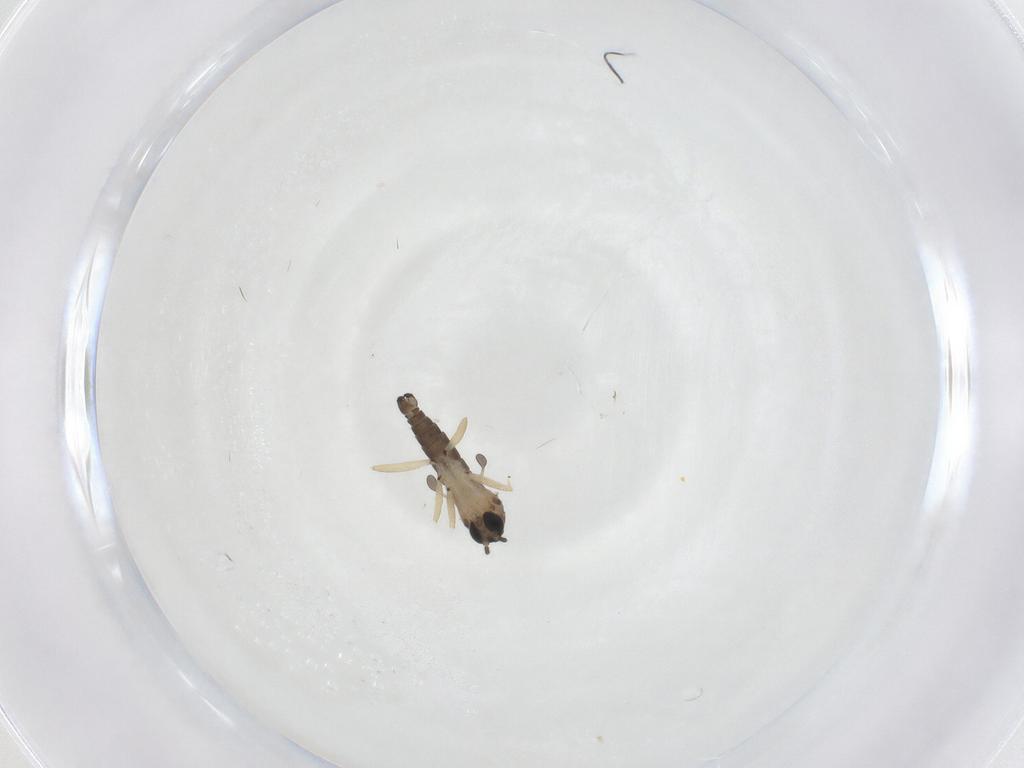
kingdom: Animalia
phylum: Arthropoda
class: Insecta
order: Diptera
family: Sciaridae
